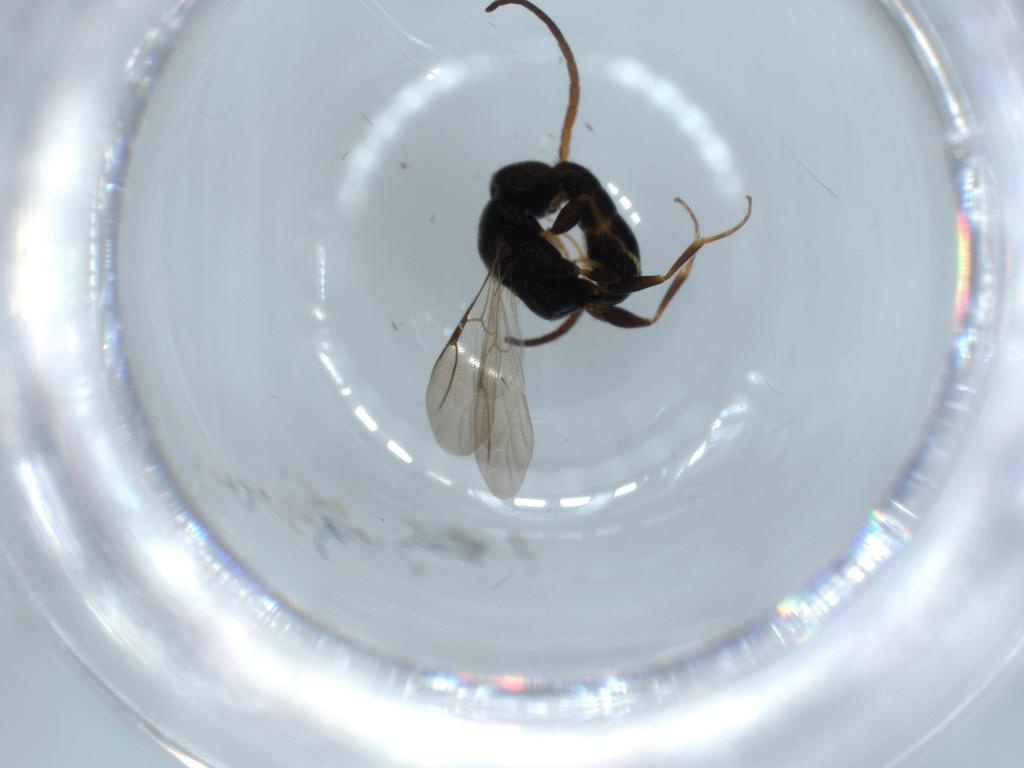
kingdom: Animalia
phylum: Arthropoda
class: Insecta
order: Hymenoptera
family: Bethylidae
